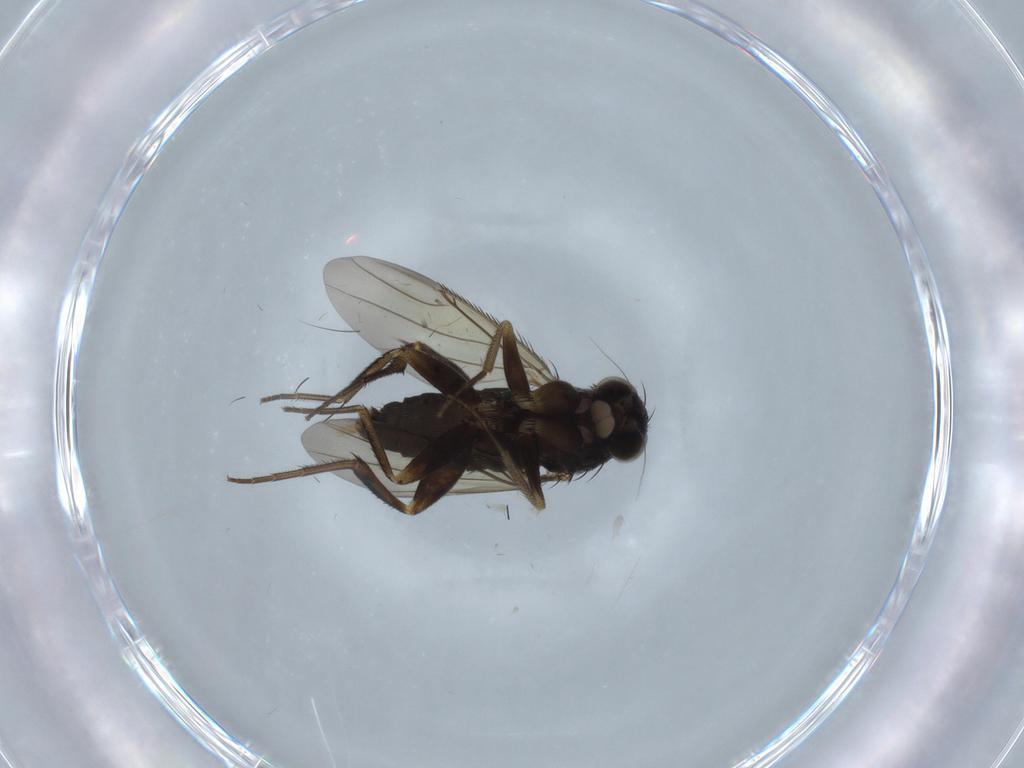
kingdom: Animalia
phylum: Arthropoda
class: Insecta
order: Diptera
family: Phoridae
